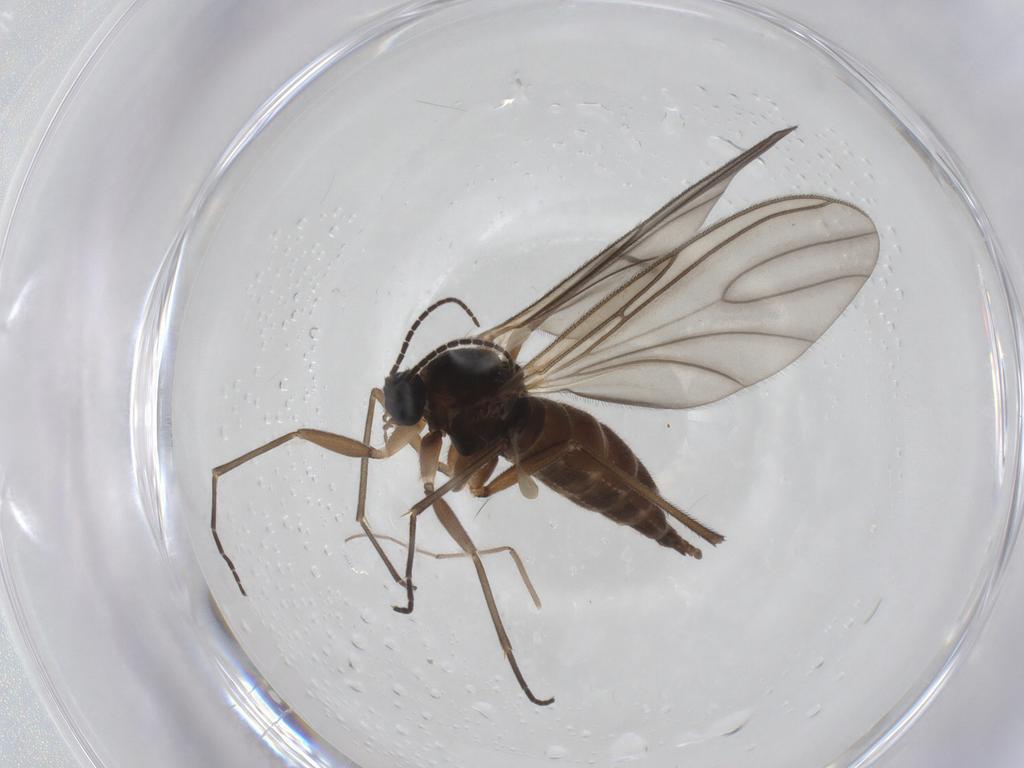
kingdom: Animalia
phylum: Arthropoda
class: Insecta
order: Diptera
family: Sciaridae
